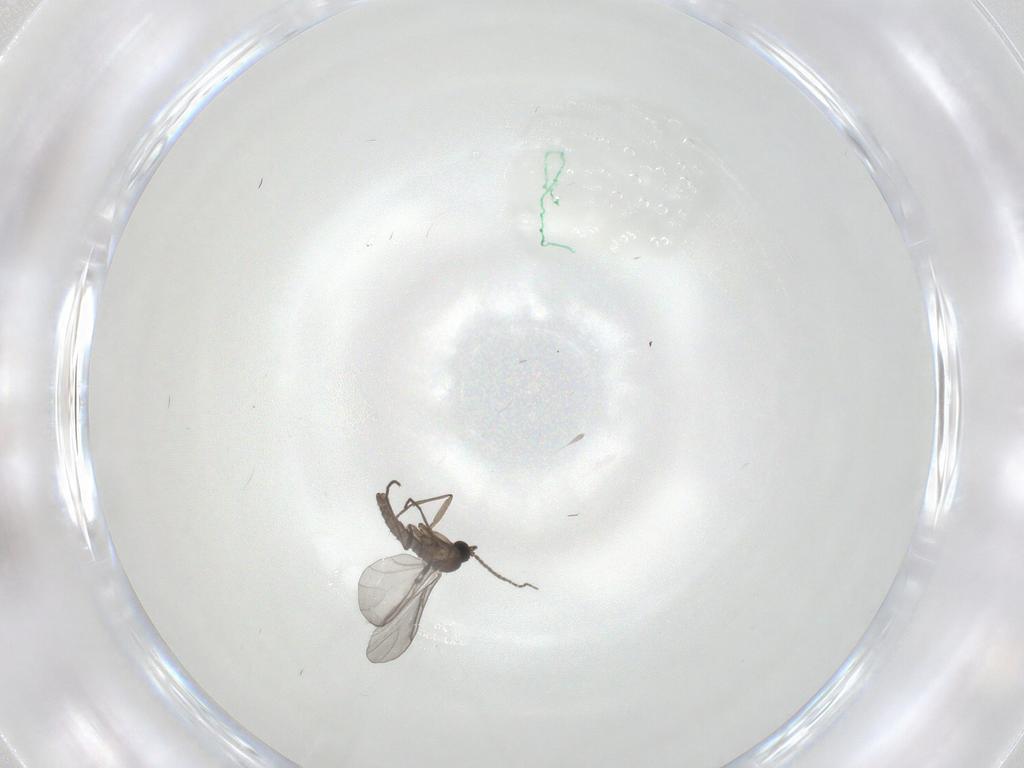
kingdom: Animalia
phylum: Arthropoda
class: Insecta
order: Diptera
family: Sciaridae
